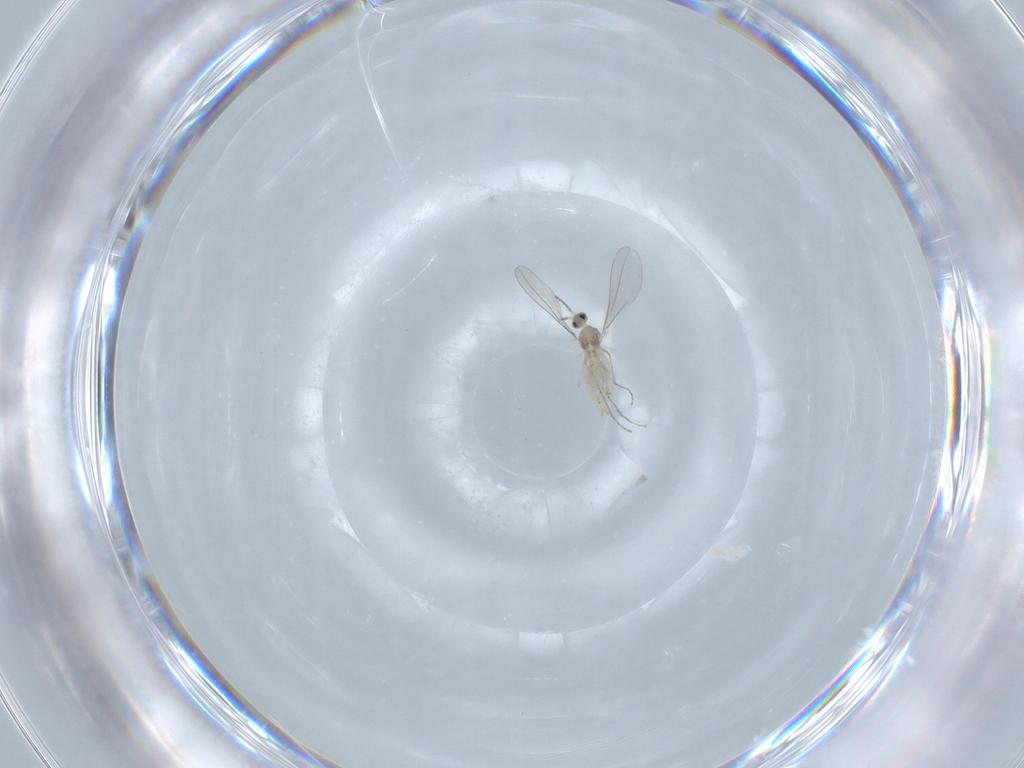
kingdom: Animalia
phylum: Arthropoda
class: Insecta
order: Diptera
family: Cecidomyiidae
